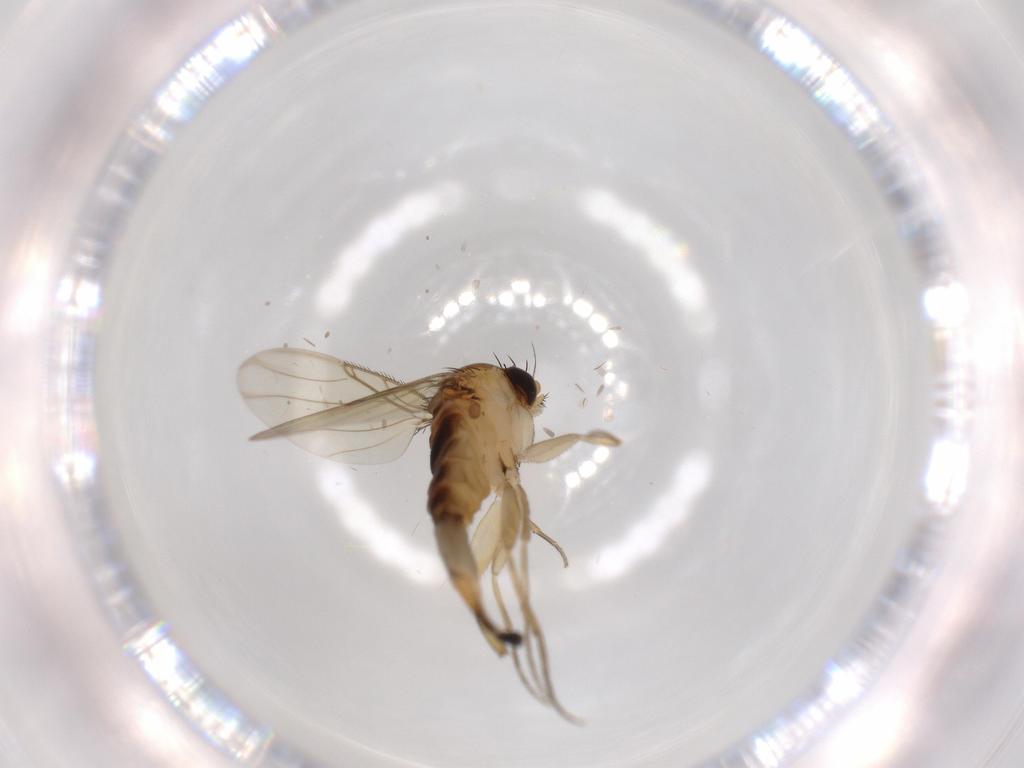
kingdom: Animalia
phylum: Arthropoda
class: Insecta
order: Diptera
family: Phoridae
